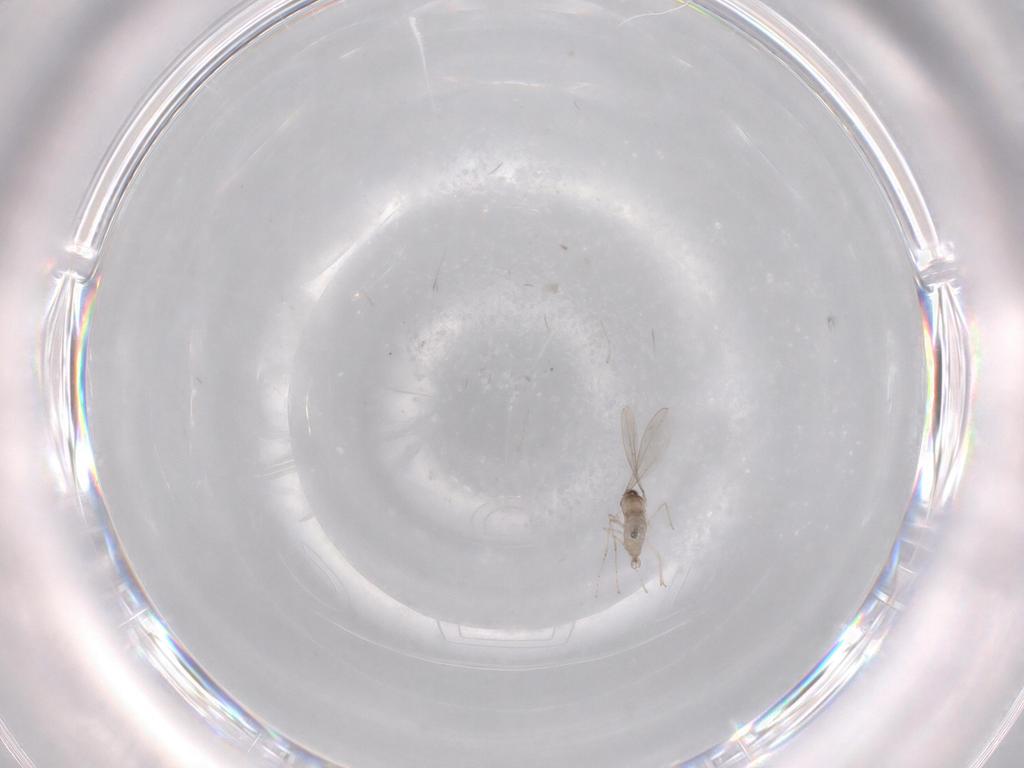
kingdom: Animalia
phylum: Arthropoda
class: Insecta
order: Diptera
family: Cecidomyiidae
